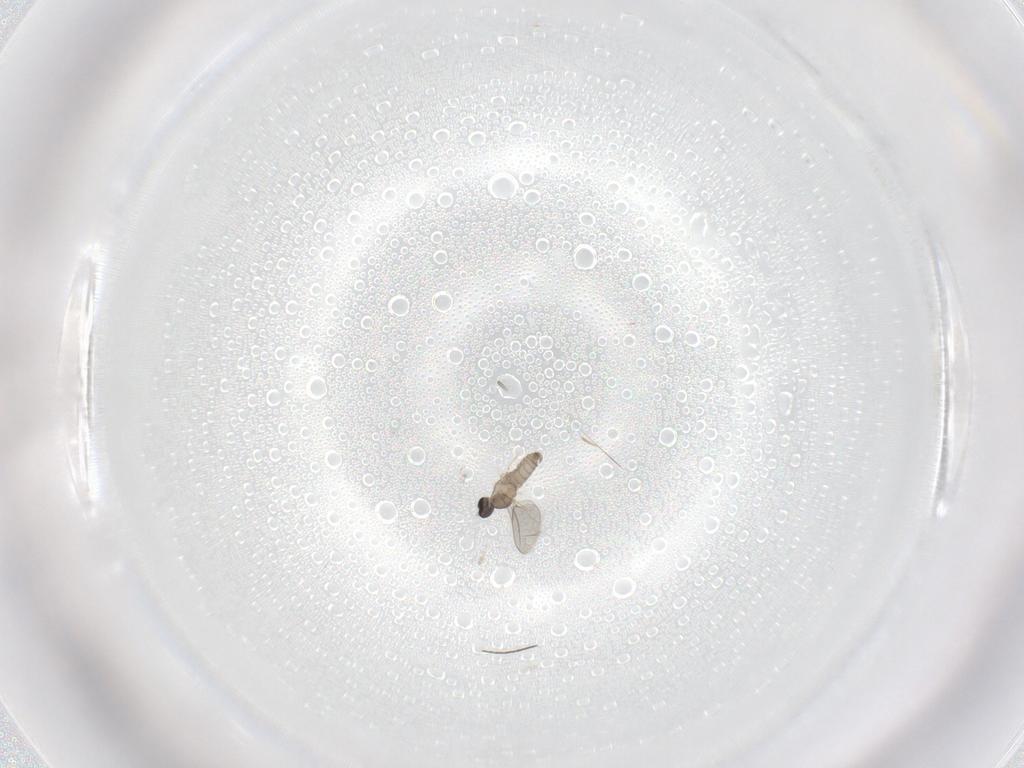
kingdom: Animalia
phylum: Arthropoda
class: Insecta
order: Diptera
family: Cecidomyiidae
